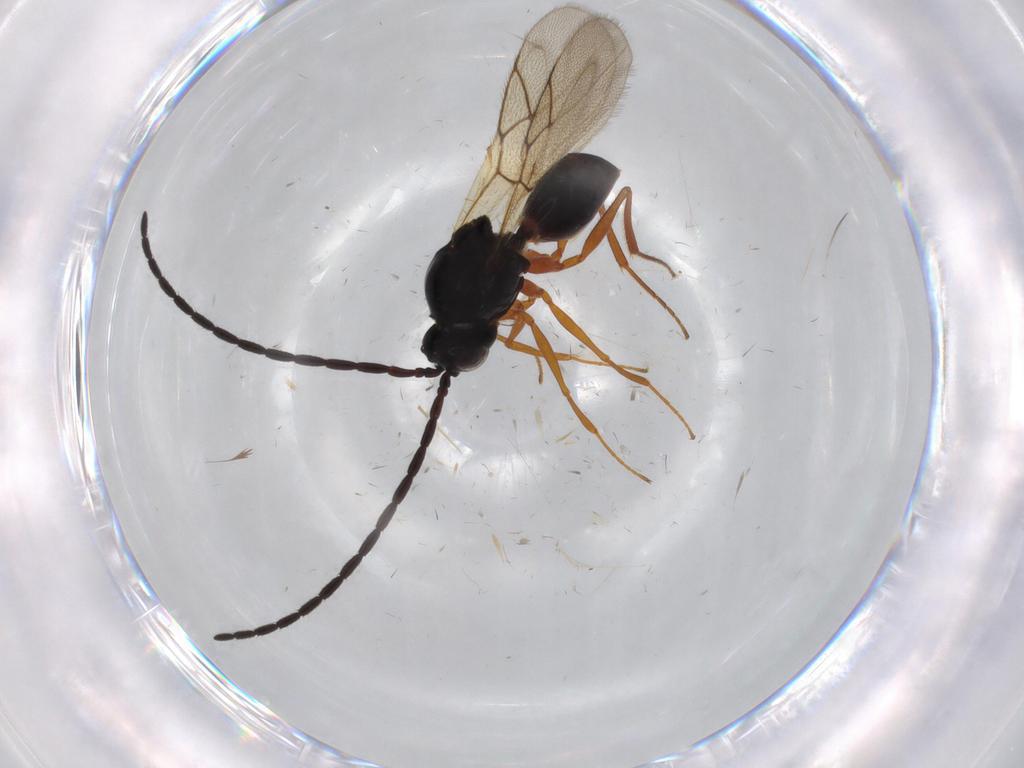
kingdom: Animalia
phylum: Arthropoda
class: Insecta
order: Hymenoptera
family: Figitidae
